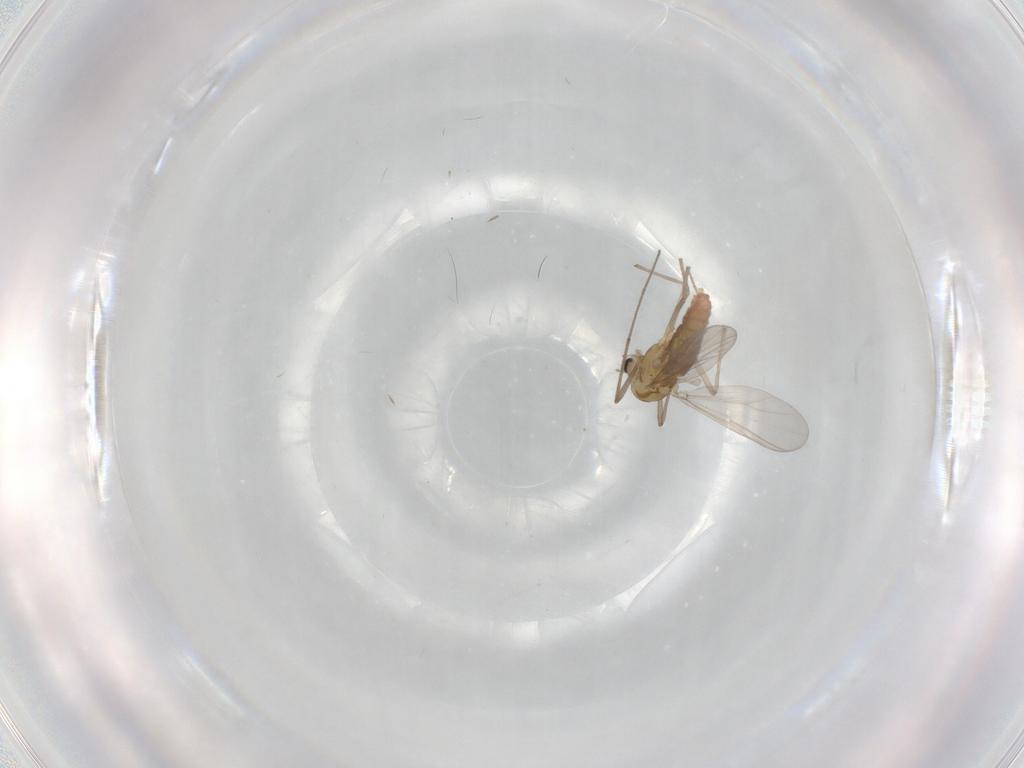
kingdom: Animalia
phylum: Arthropoda
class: Insecta
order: Diptera
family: Chironomidae
